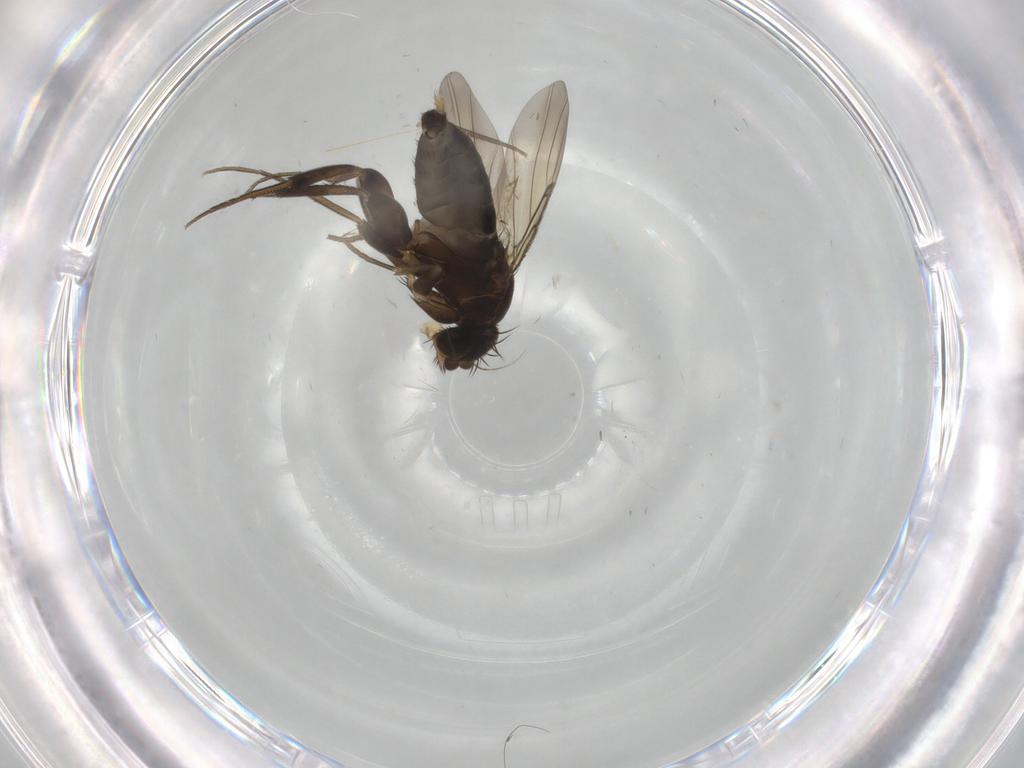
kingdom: Animalia
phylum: Arthropoda
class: Insecta
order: Diptera
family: Phoridae
